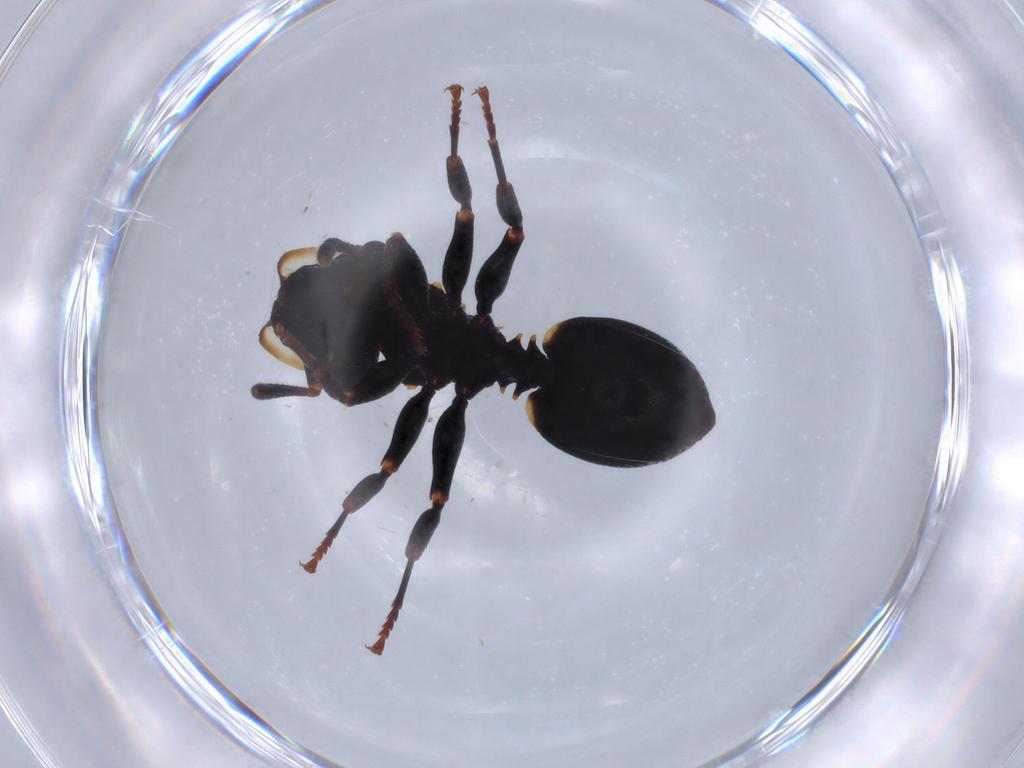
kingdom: Animalia
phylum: Arthropoda
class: Insecta
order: Hymenoptera
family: Formicidae
